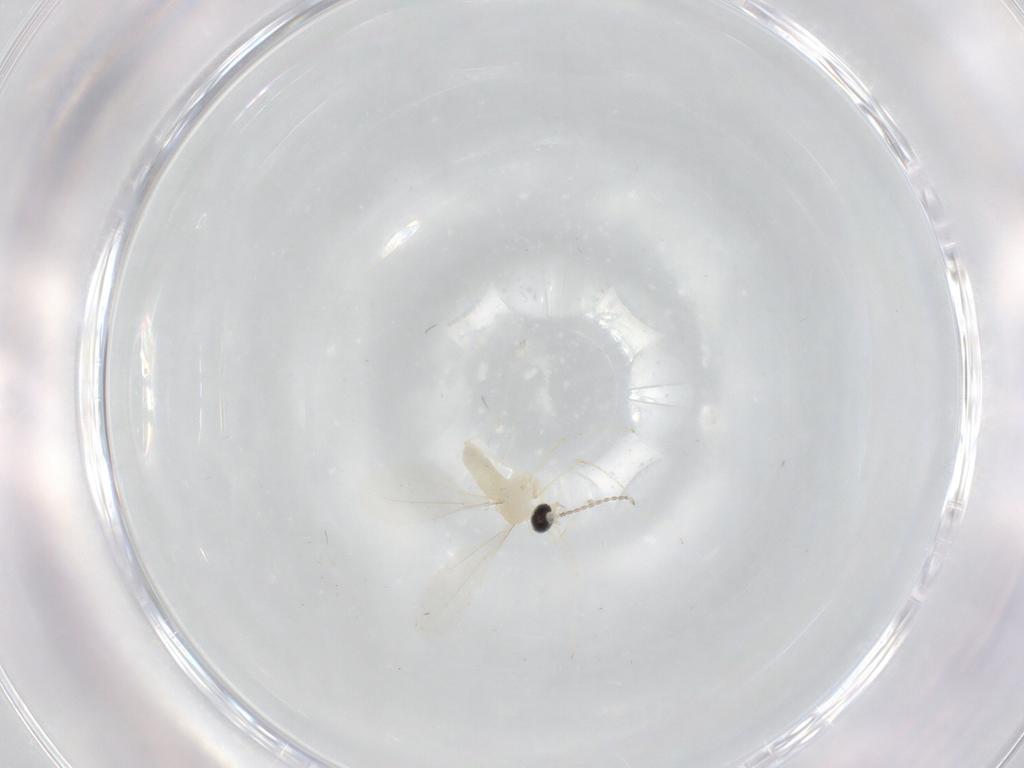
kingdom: Animalia
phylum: Arthropoda
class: Insecta
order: Diptera
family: Cecidomyiidae
